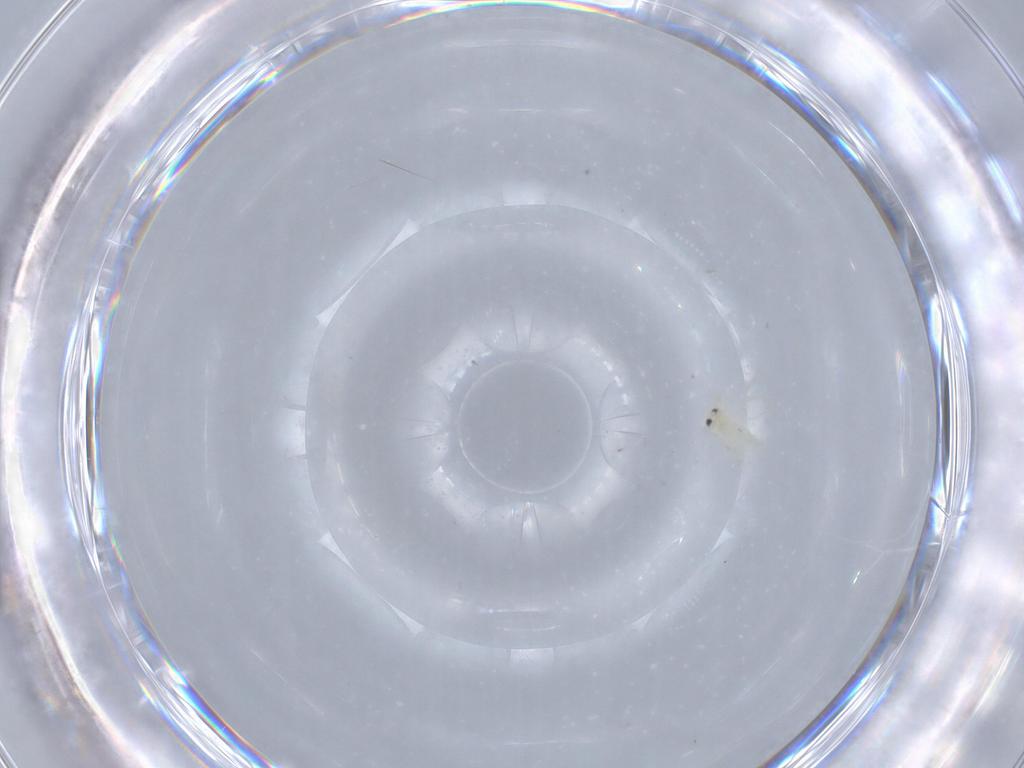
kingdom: Animalia
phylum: Arthropoda
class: Insecta
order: Hemiptera
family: Aleyrodidae
